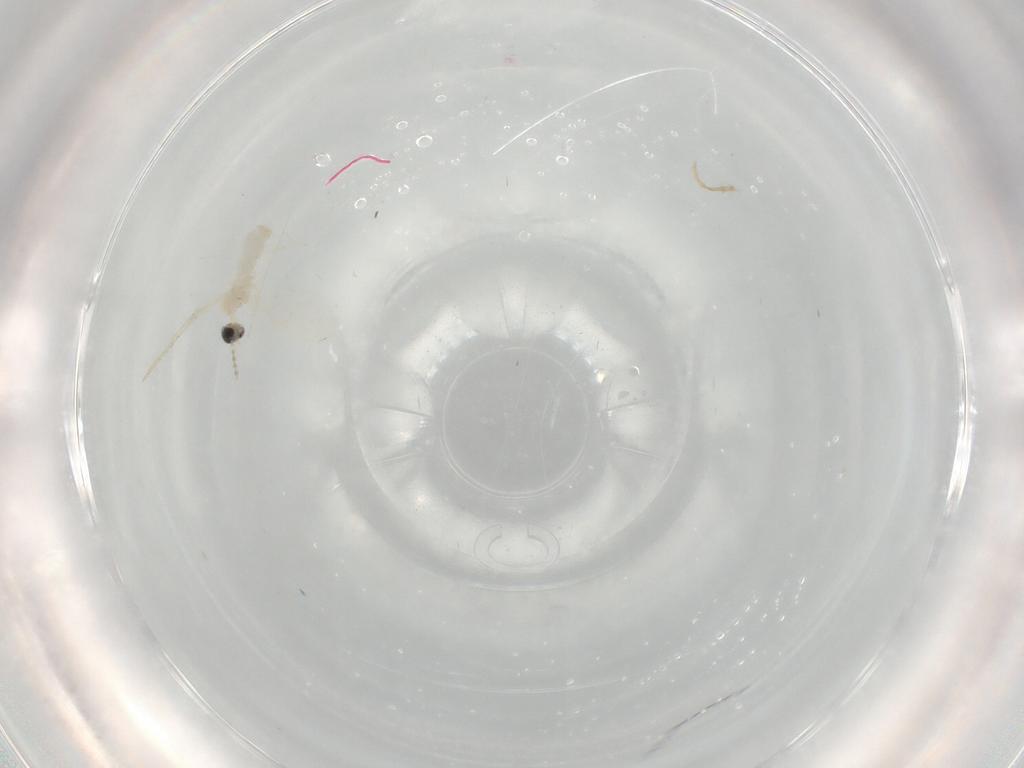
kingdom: Animalia
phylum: Arthropoda
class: Insecta
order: Diptera
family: Cecidomyiidae
